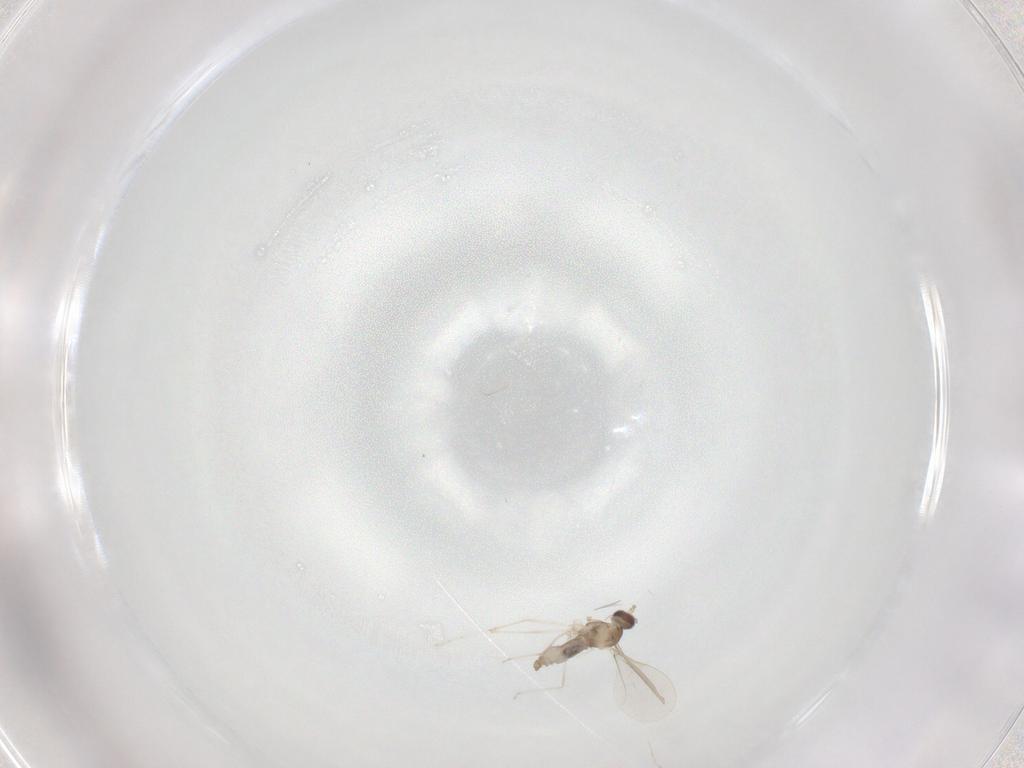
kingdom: Animalia
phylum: Arthropoda
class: Insecta
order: Diptera
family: Cecidomyiidae
